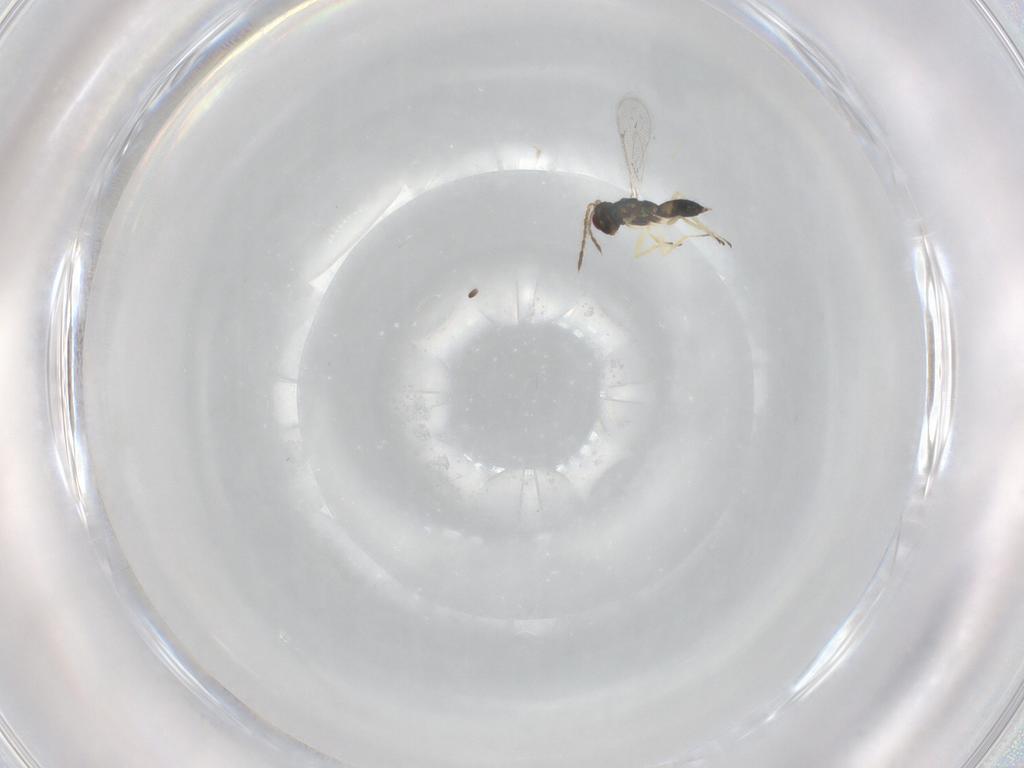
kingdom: Animalia
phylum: Arthropoda
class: Insecta
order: Hymenoptera
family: Eulophidae
